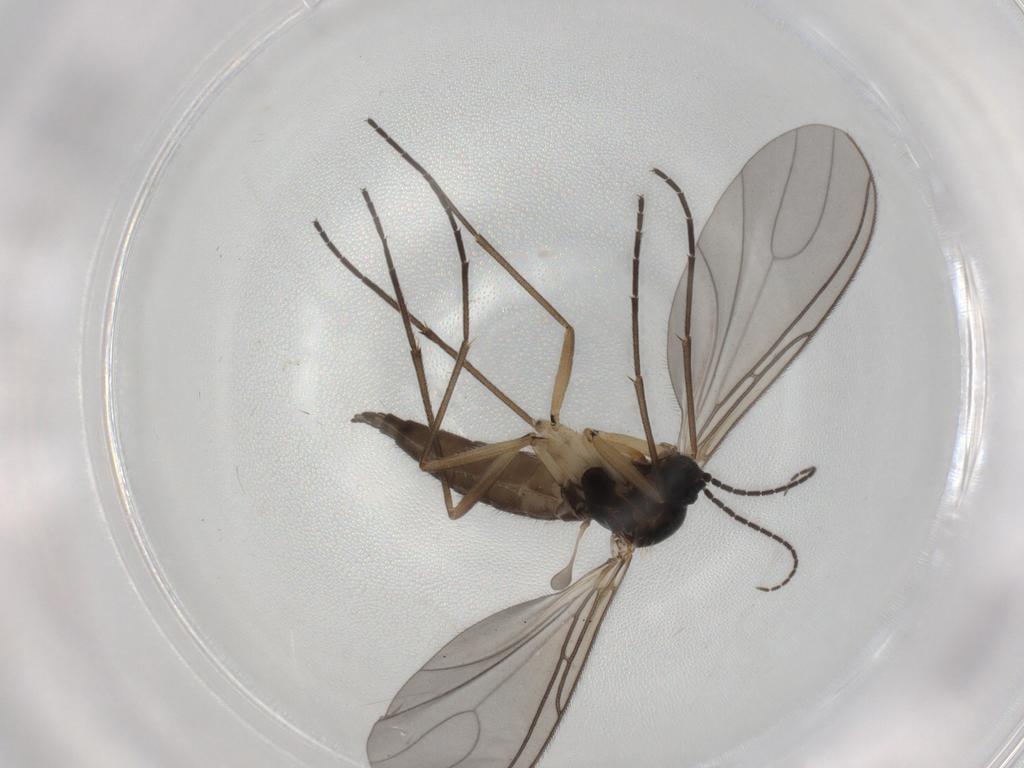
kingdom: Animalia
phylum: Arthropoda
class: Insecta
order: Diptera
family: Sciaridae
